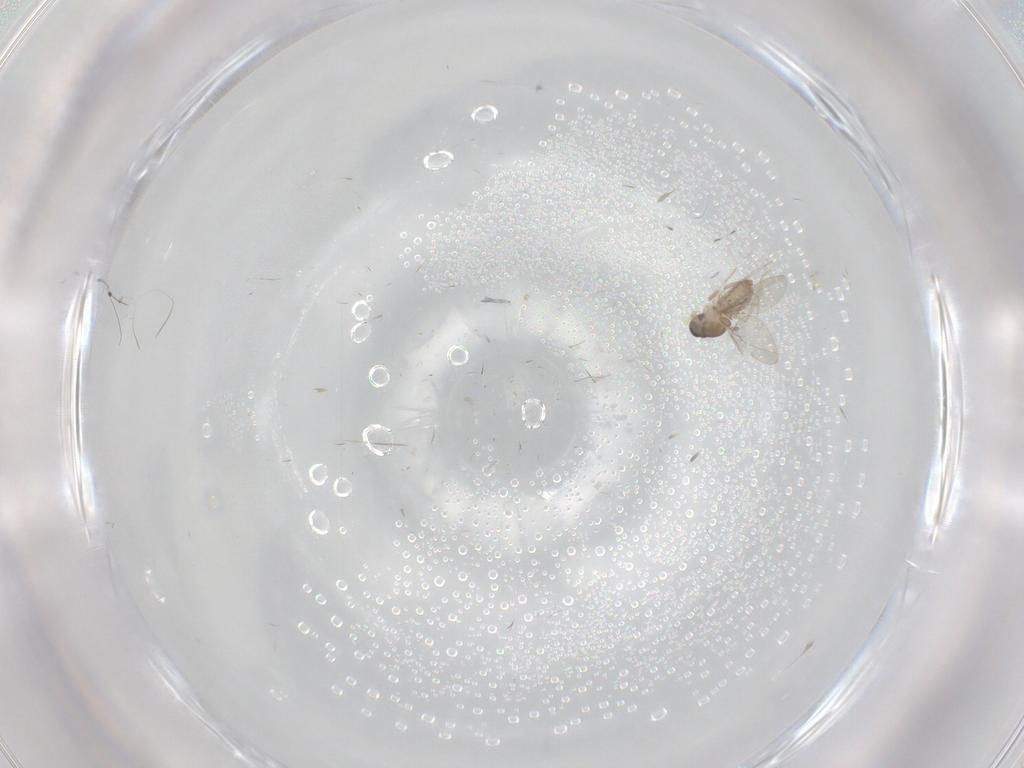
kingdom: Animalia
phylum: Arthropoda
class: Insecta
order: Diptera
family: Cecidomyiidae
